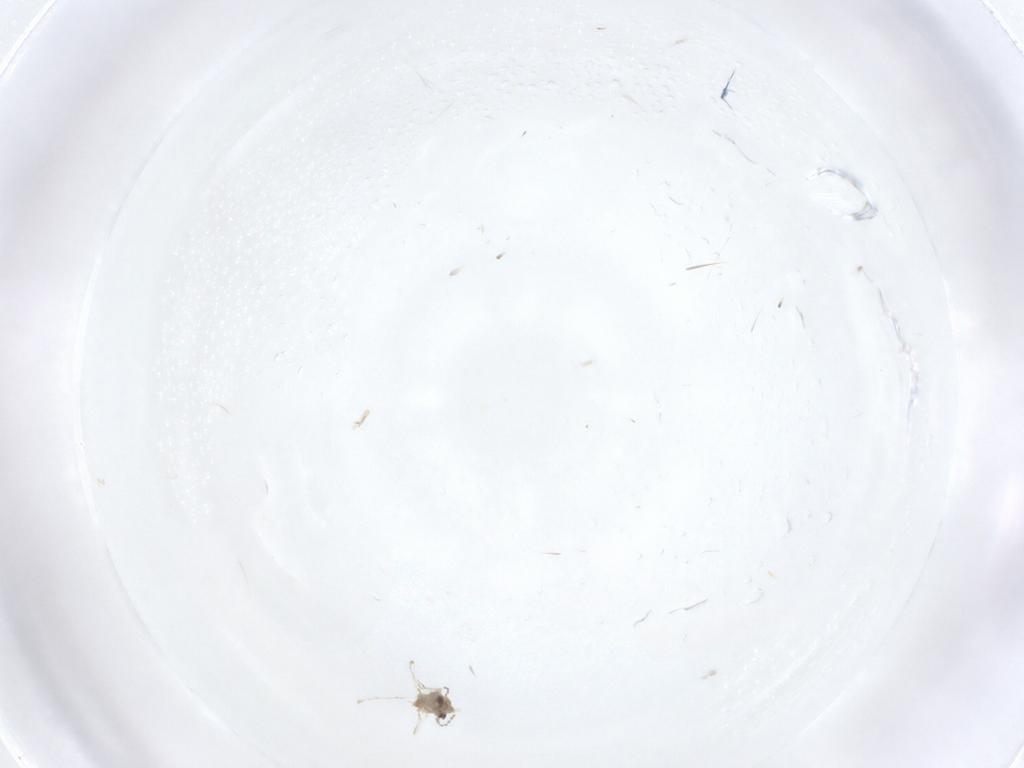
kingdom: Animalia
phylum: Arthropoda
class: Insecta
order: Diptera
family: Cecidomyiidae
